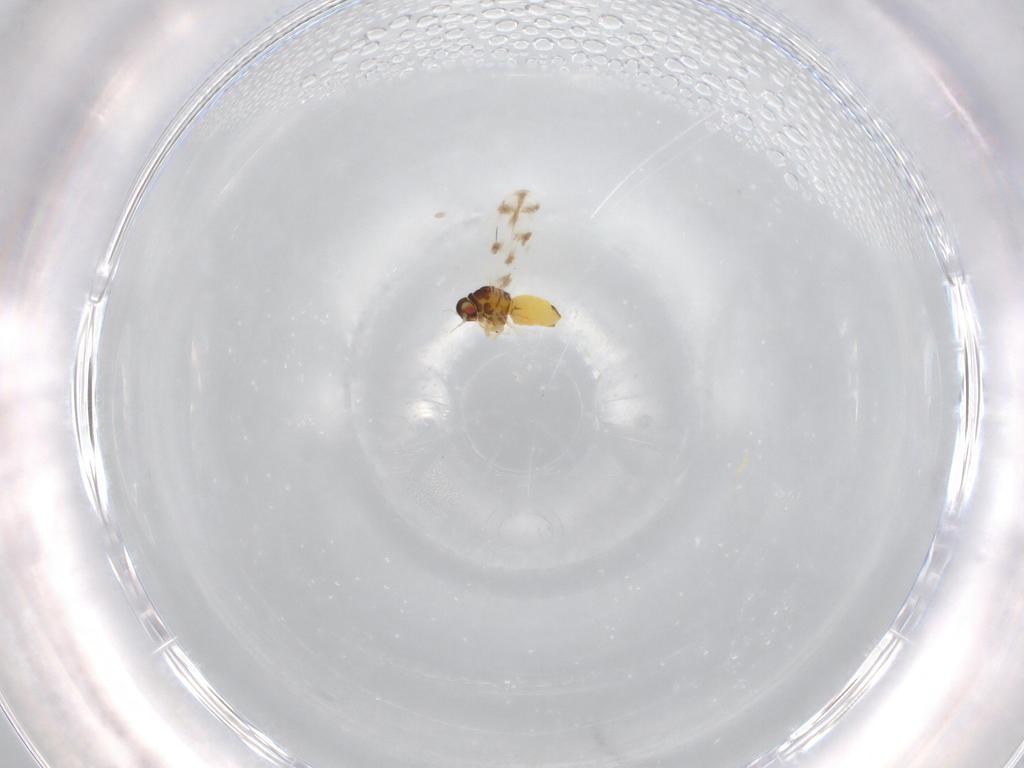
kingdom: Animalia
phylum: Arthropoda
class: Insecta
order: Hemiptera
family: Aleyrodidae
